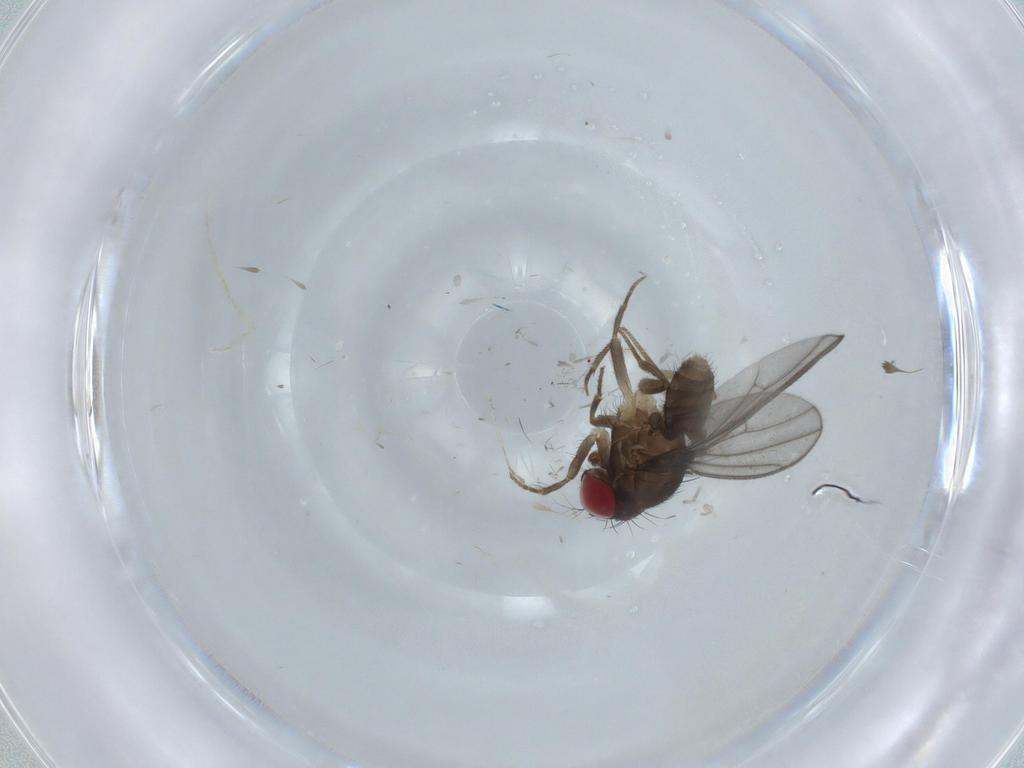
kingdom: Animalia
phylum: Arthropoda
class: Insecta
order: Diptera
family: Drosophilidae
